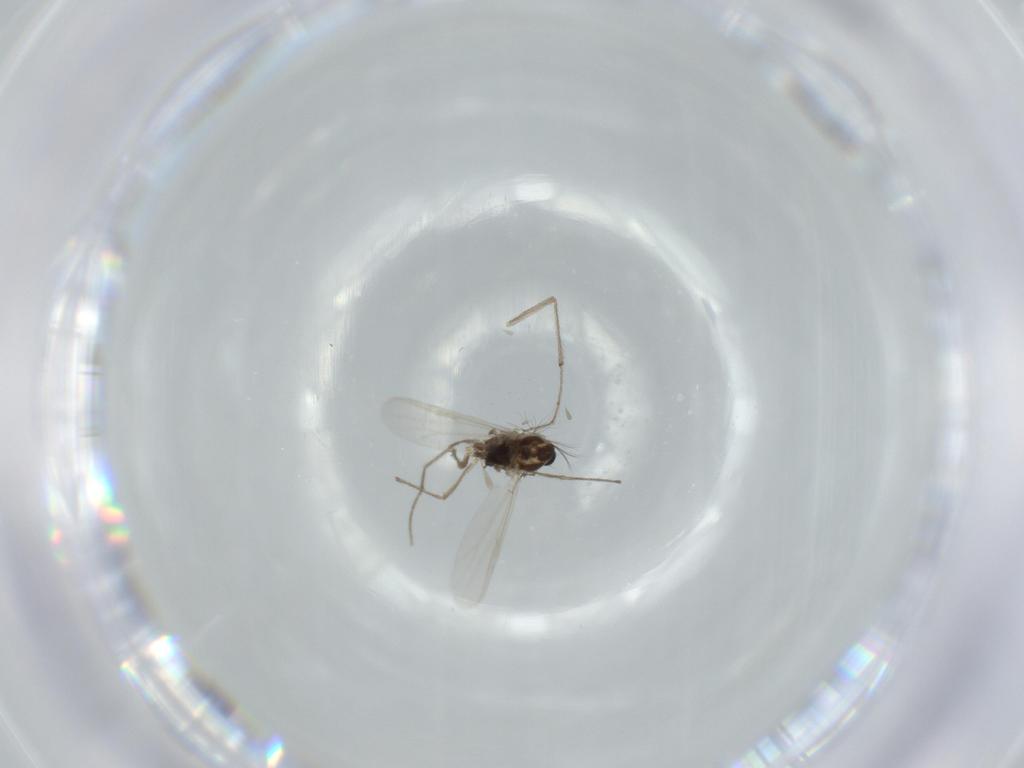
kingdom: Animalia
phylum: Arthropoda
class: Insecta
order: Diptera
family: Chironomidae
